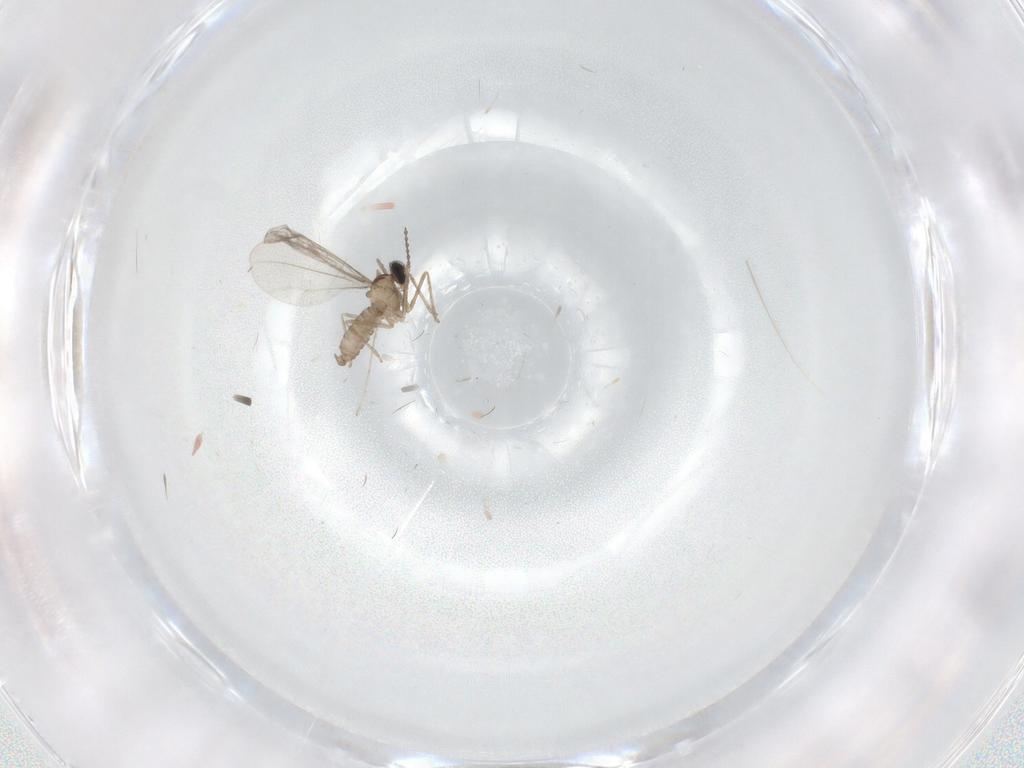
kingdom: Animalia
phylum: Arthropoda
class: Insecta
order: Diptera
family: Cecidomyiidae
